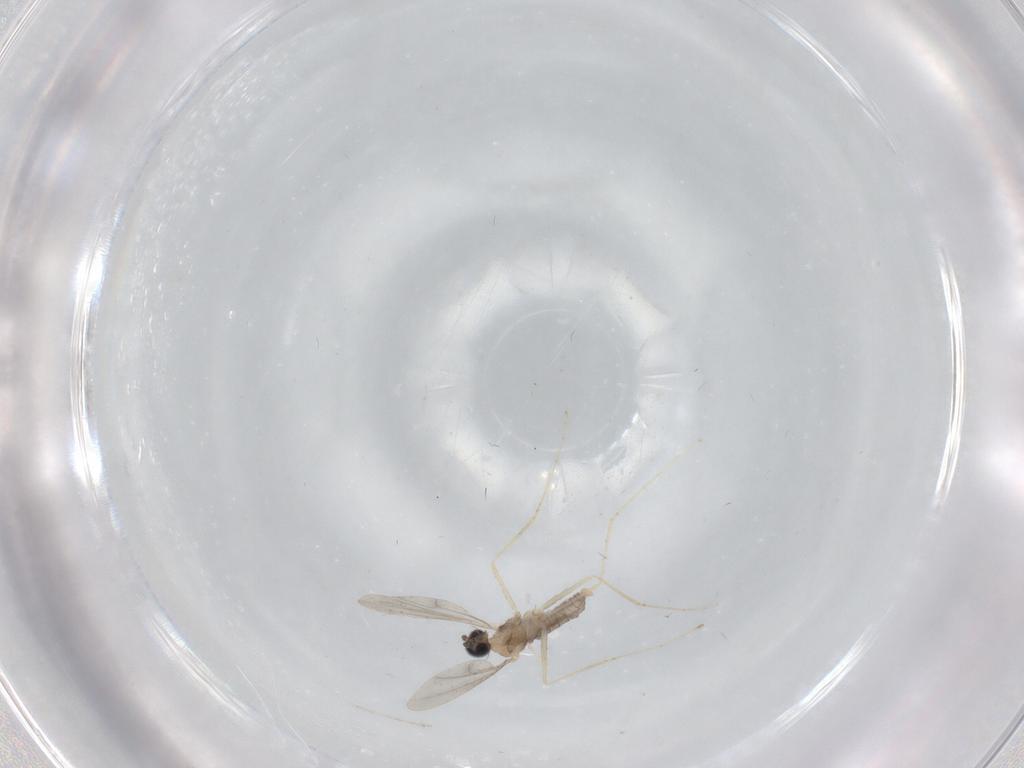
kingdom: Animalia
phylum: Arthropoda
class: Insecta
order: Diptera
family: Cecidomyiidae
